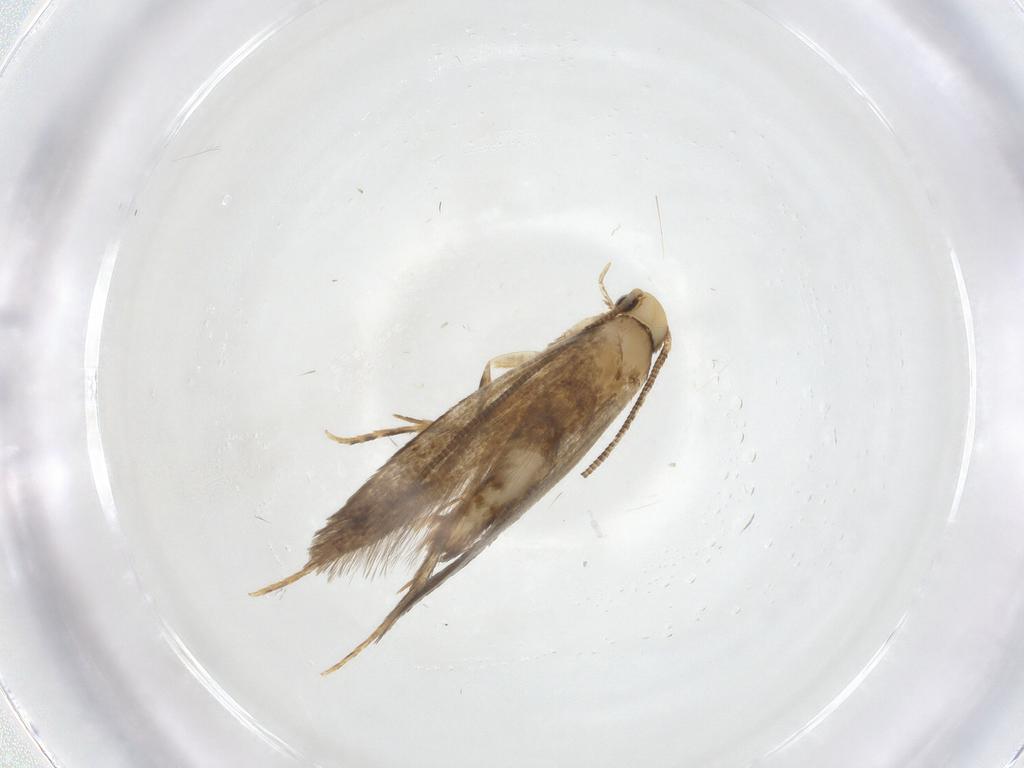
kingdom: Animalia
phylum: Arthropoda
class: Insecta
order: Lepidoptera
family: Tineidae
